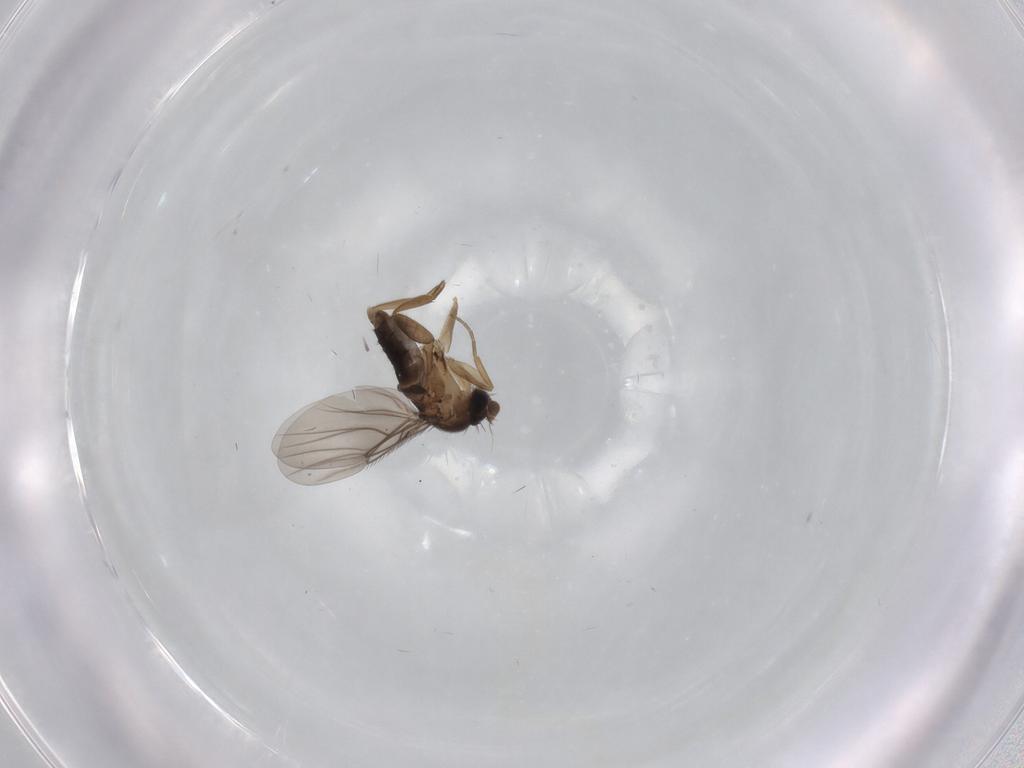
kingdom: Animalia
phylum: Arthropoda
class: Insecta
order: Diptera
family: Phoridae
